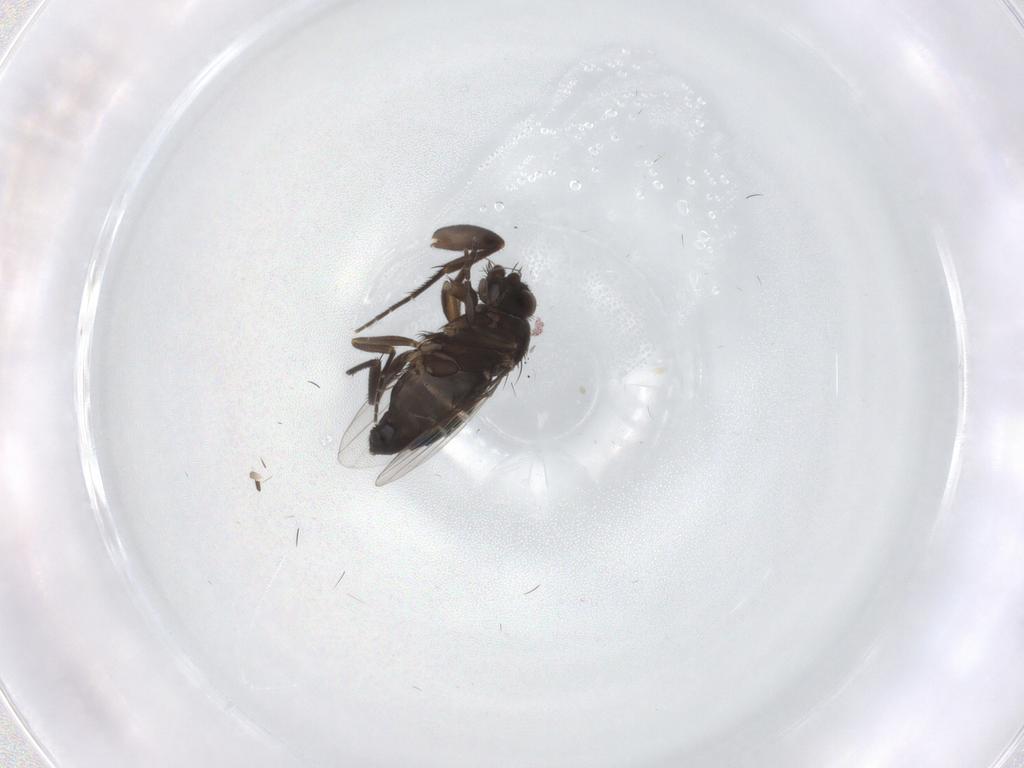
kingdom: Animalia
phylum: Arthropoda
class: Insecta
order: Diptera
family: Phoridae
